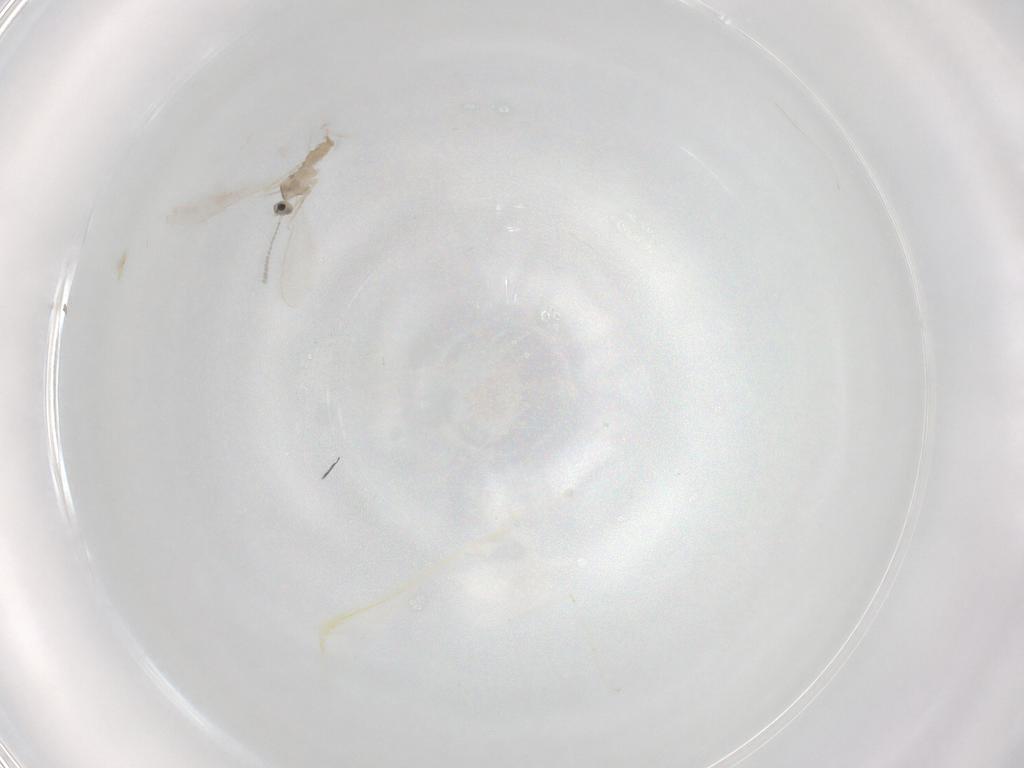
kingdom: Animalia
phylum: Arthropoda
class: Insecta
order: Diptera
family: Cecidomyiidae
